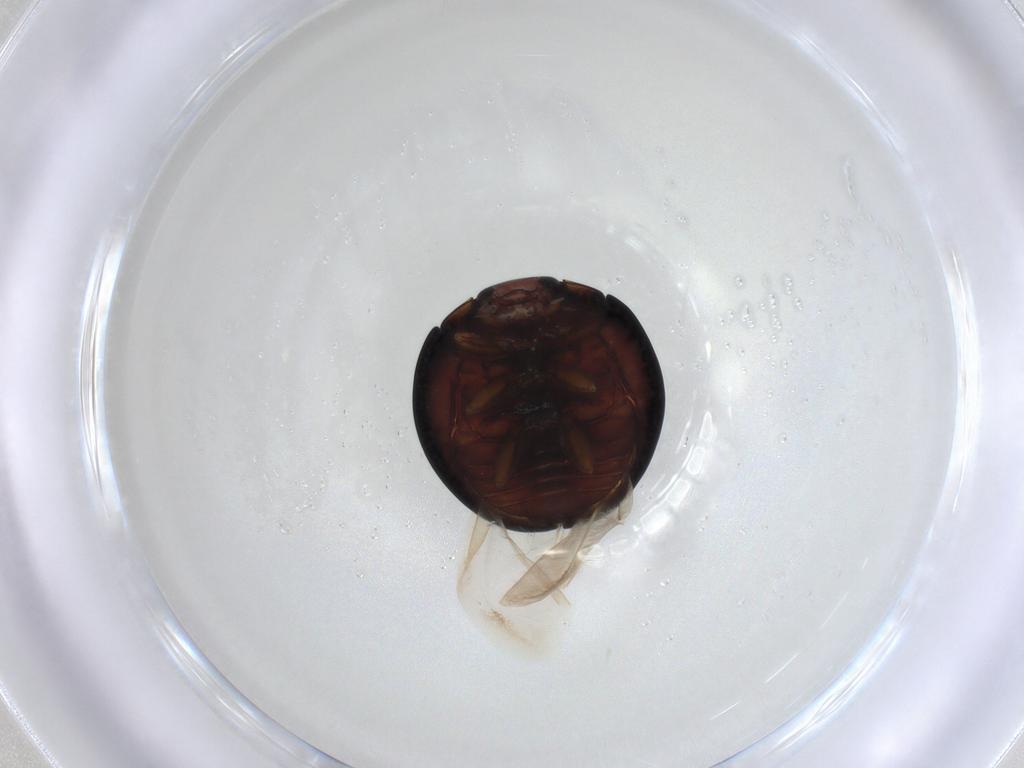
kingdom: Animalia
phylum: Arthropoda
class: Insecta
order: Coleoptera
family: Coccinellidae
